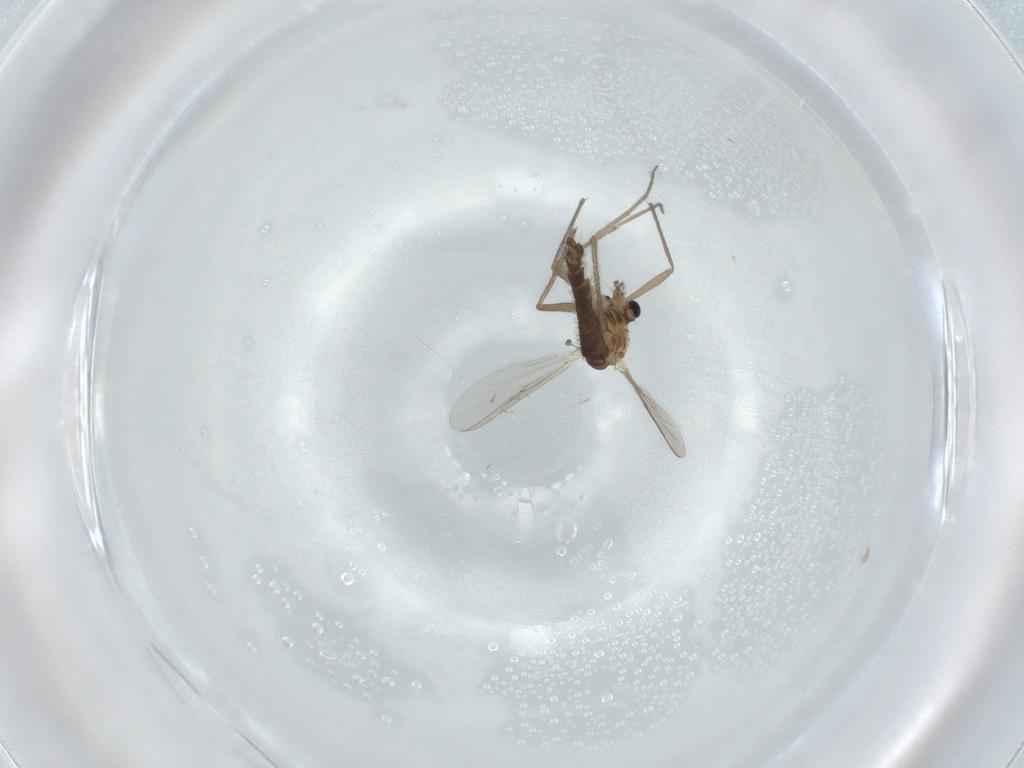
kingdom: Animalia
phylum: Arthropoda
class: Insecta
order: Diptera
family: Chironomidae
